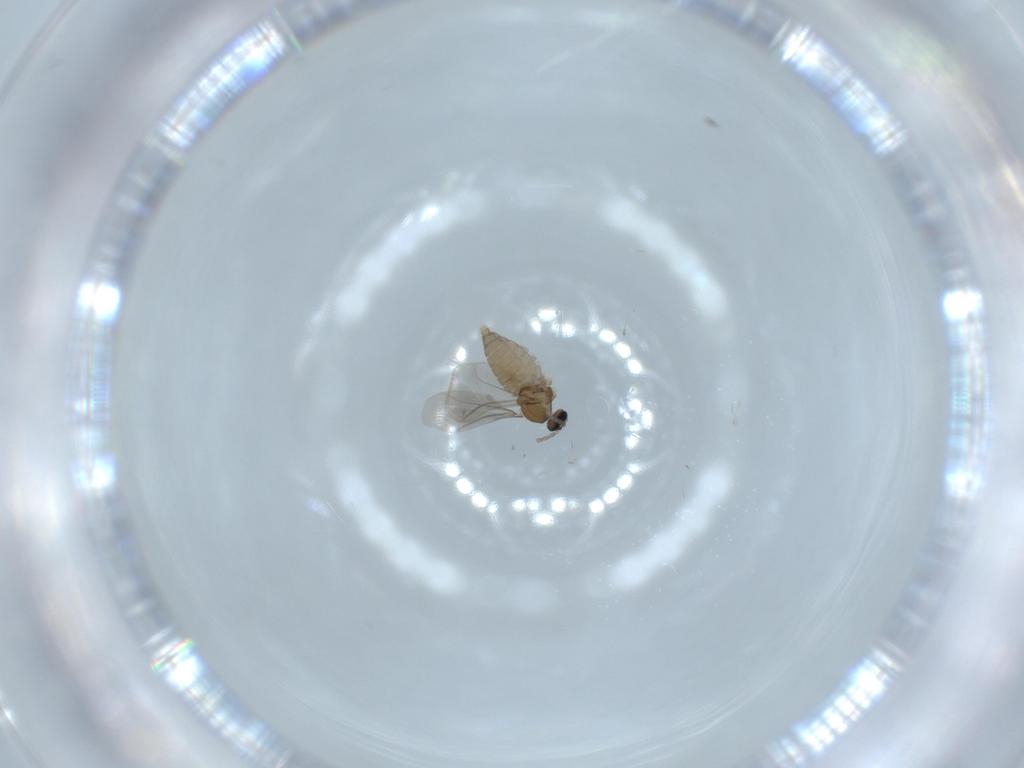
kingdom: Animalia
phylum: Arthropoda
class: Insecta
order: Diptera
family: Cecidomyiidae
